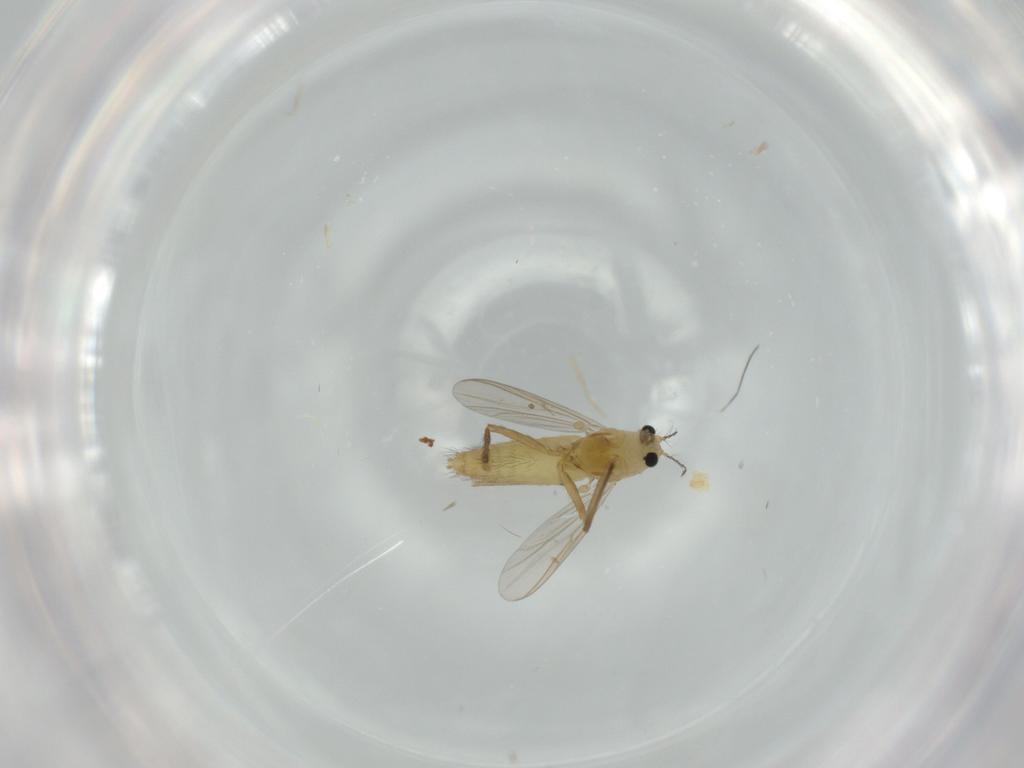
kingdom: Animalia
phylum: Arthropoda
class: Insecta
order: Diptera
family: Chironomidae
